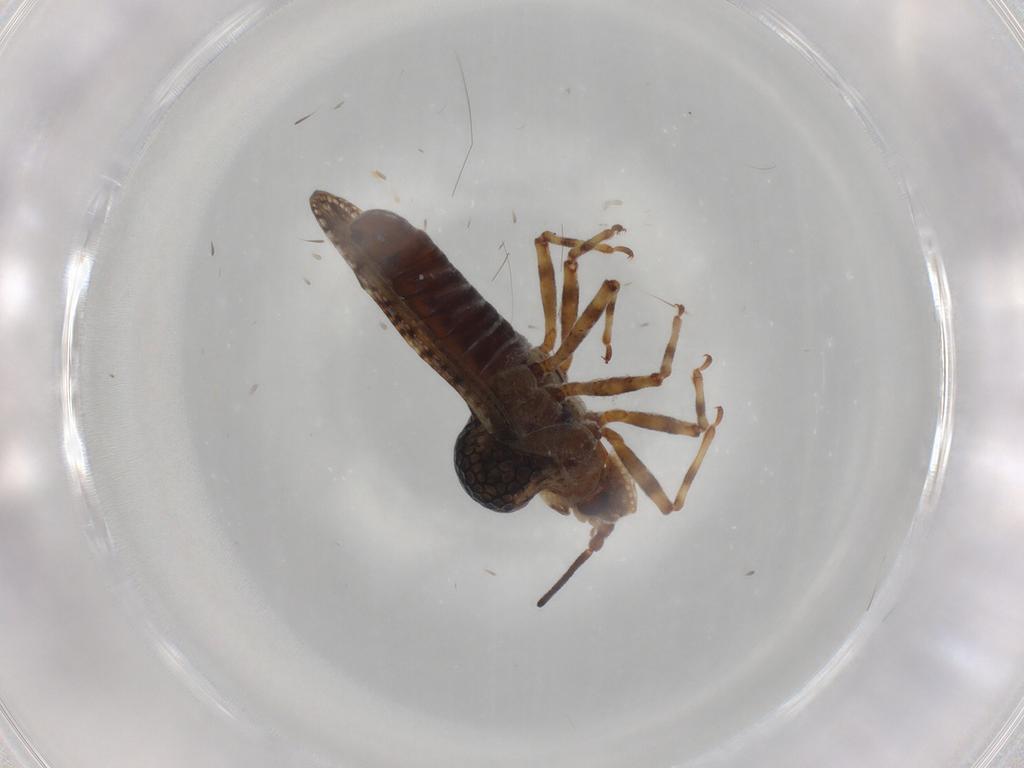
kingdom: Animalia
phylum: Arthropoda
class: Insecta
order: Hemiptera
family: Tingidae
